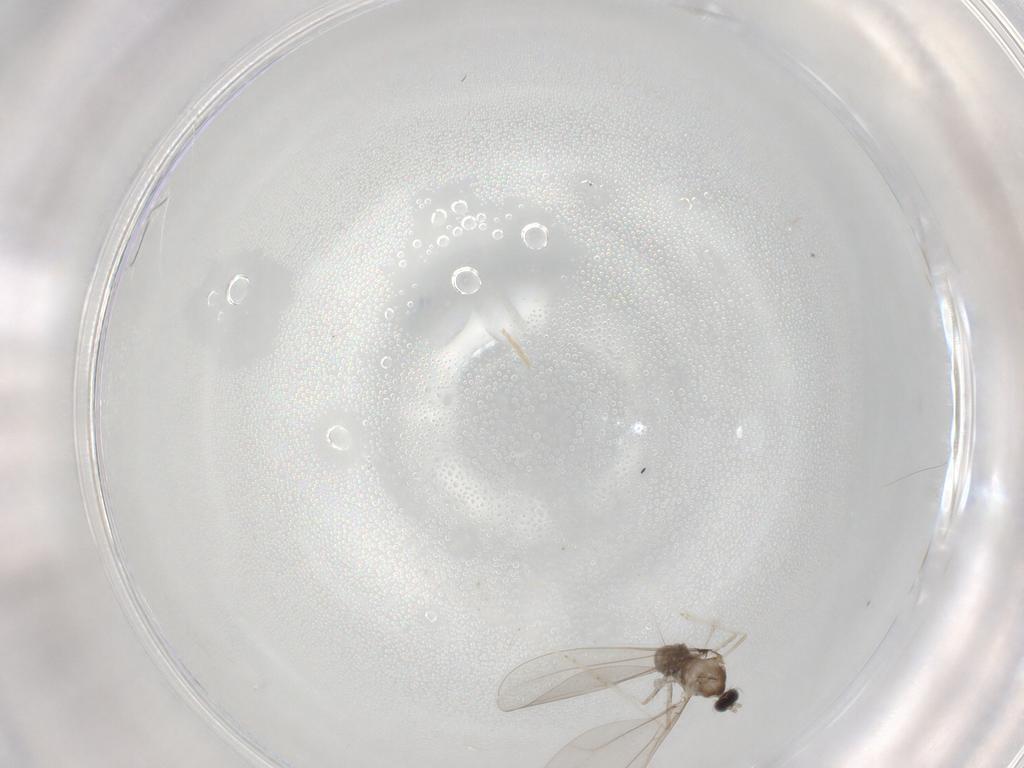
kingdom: Animalia
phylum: Arthropoda
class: Insecta
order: Diptera
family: Cecidomyiidae
